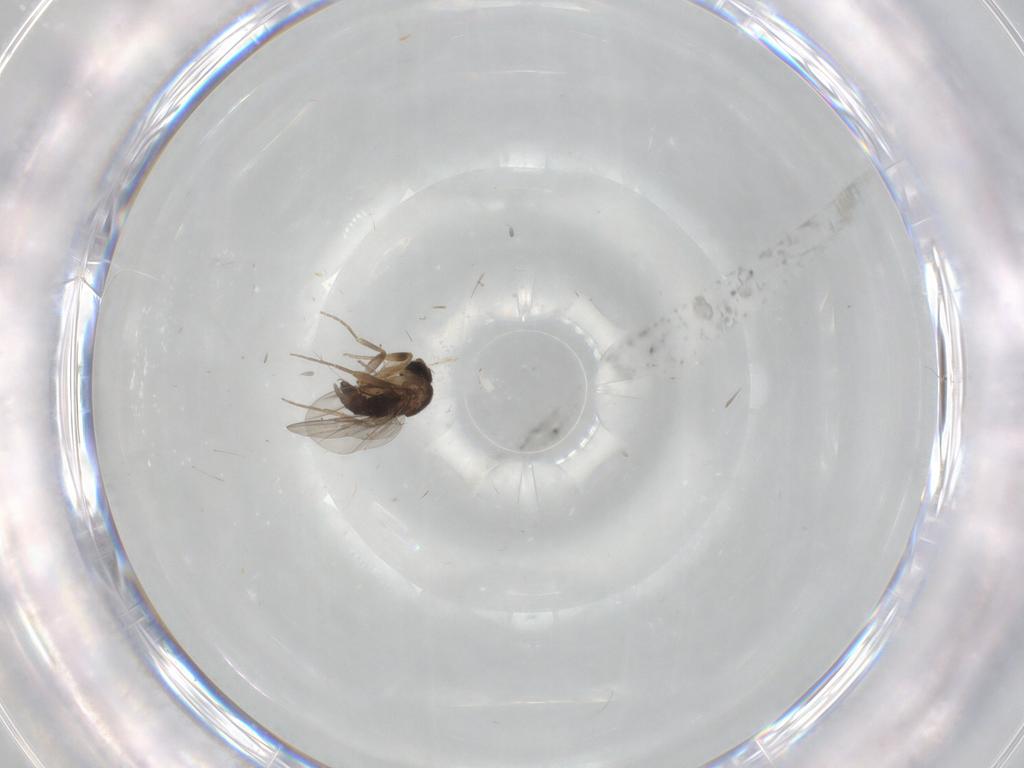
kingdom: Animalia
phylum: Arthropoda
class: Insecta
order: Diptera
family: Phoridae
